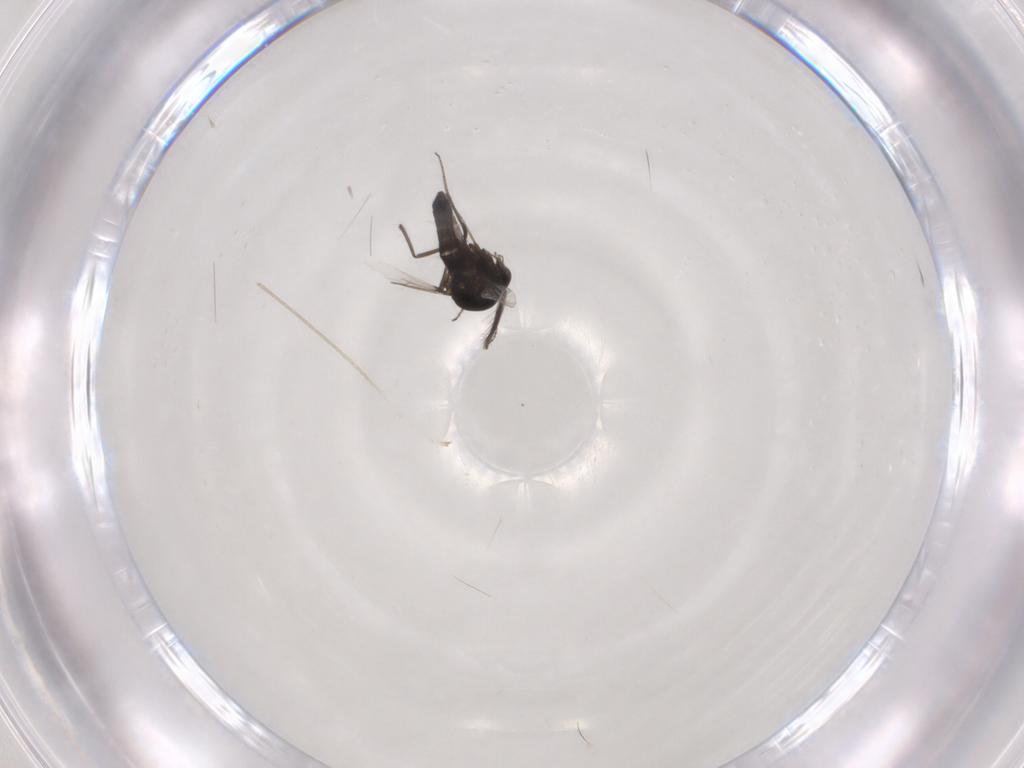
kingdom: Animalia
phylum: Arthropoda
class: Insecta
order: Diptera
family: Ceratopogonidae
